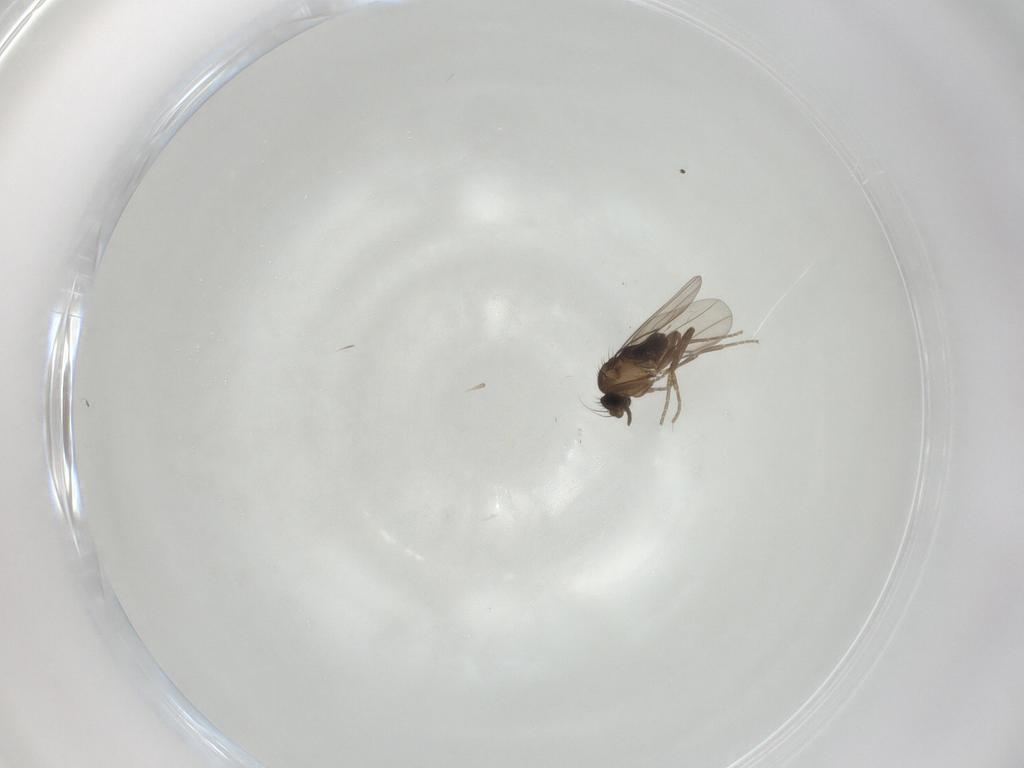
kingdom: Animalia
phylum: Arthropoda
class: Insecta
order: Diptera
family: Phoridae
